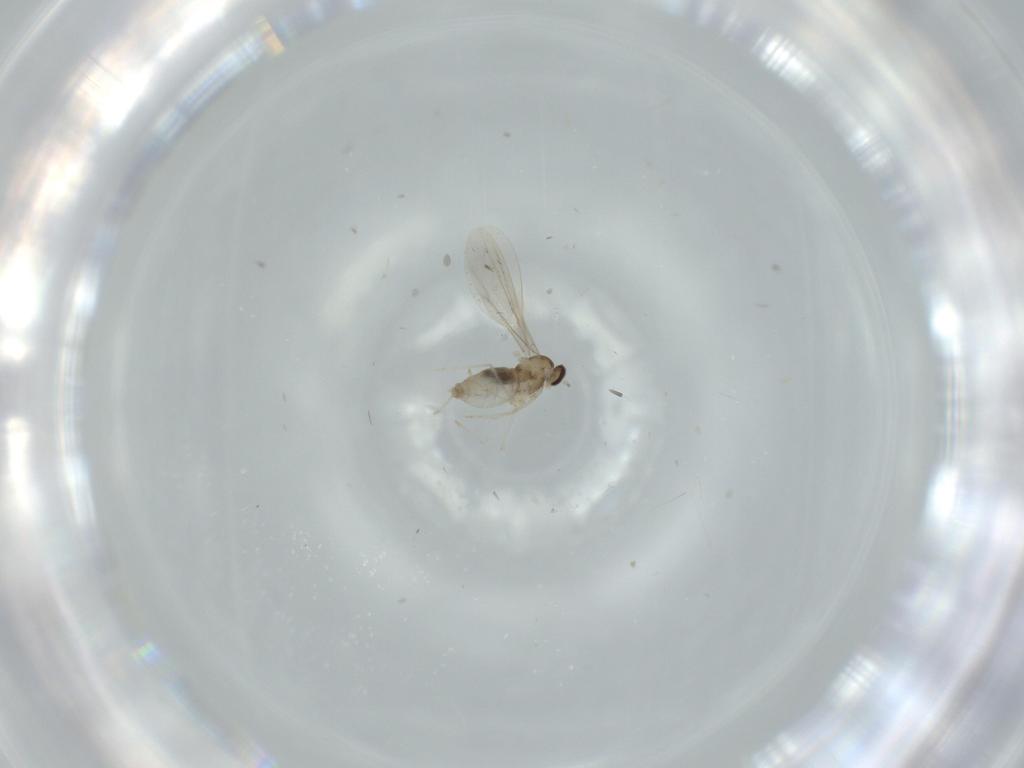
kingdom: Animalia
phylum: Arthropoda
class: Insecta
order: Diptera
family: Cecidomyiidae
